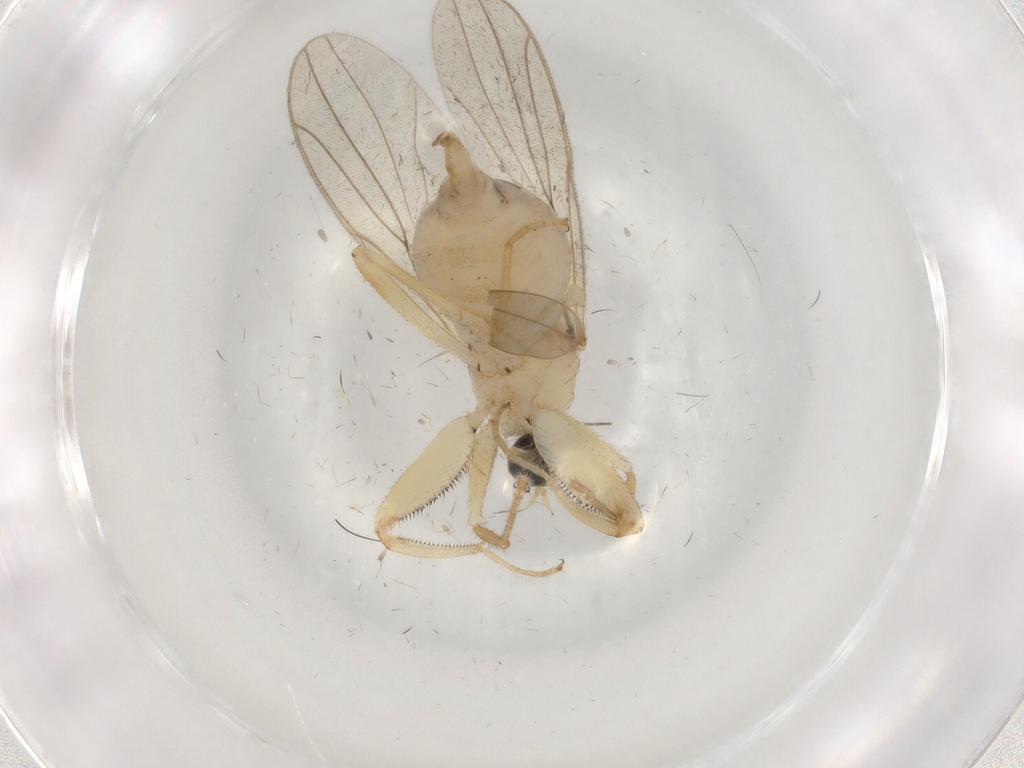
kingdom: Animalia
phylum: Arthropoda
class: Insecta
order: Diptera
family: Hybotidae
